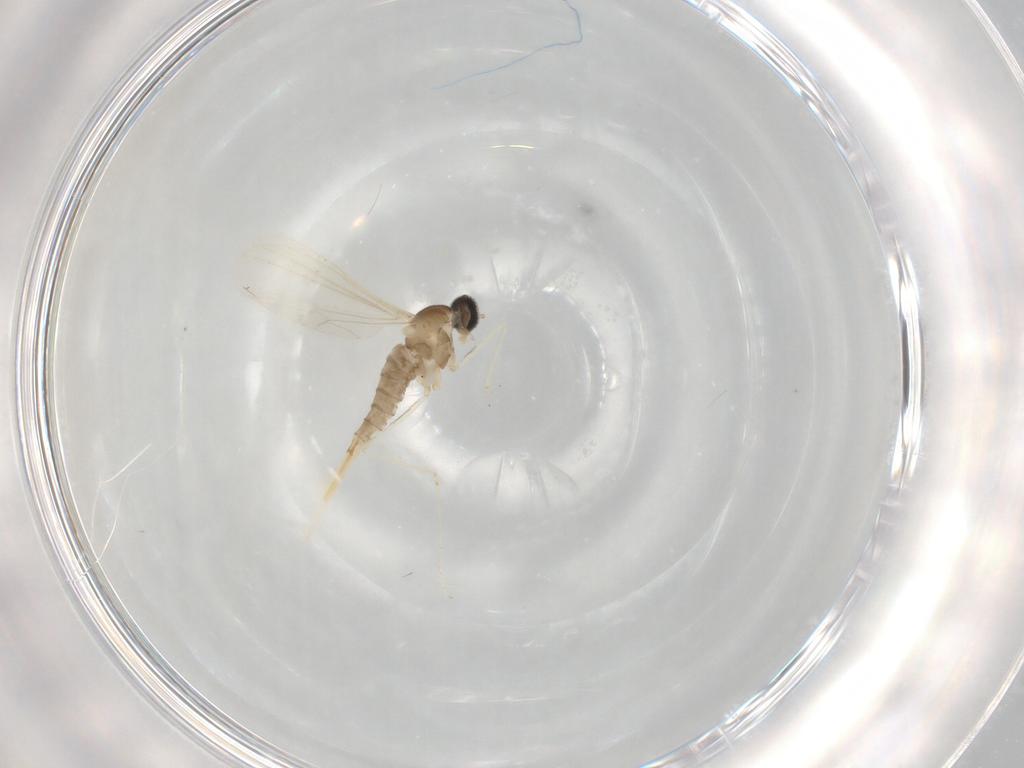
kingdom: Animalia
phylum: Arthropoda
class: Insecta
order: Diptera
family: Cecidomyiidae
